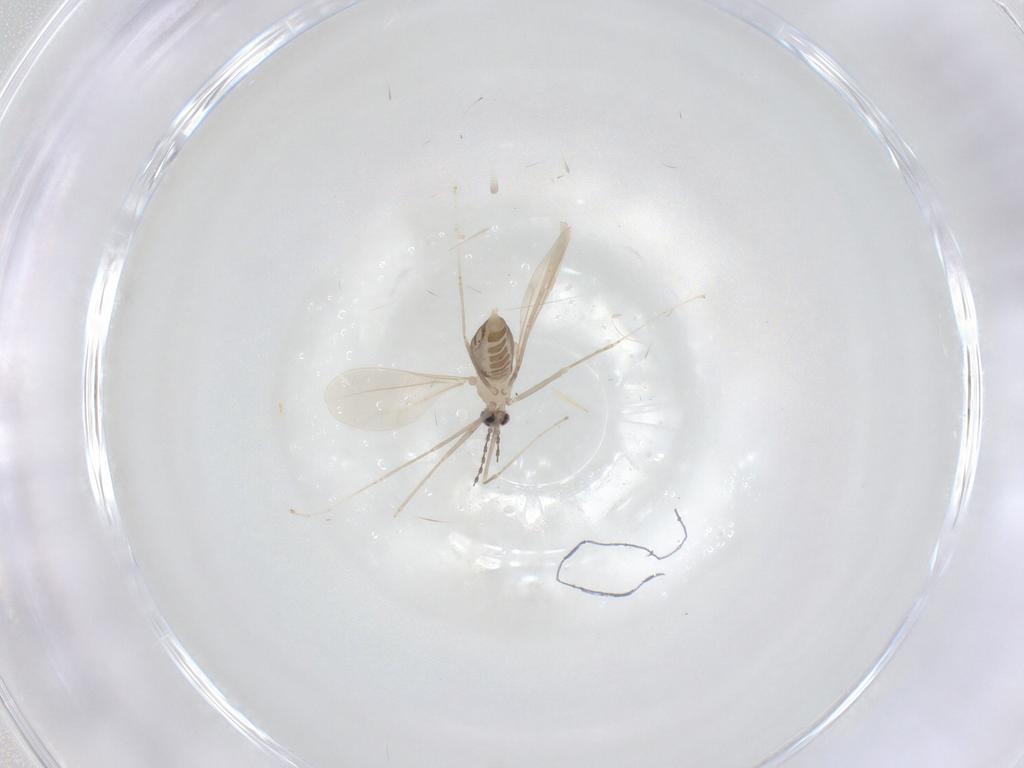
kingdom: Animalia
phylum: Arthropoda
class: Insecta
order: Diptera
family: Cecidomyiidae
